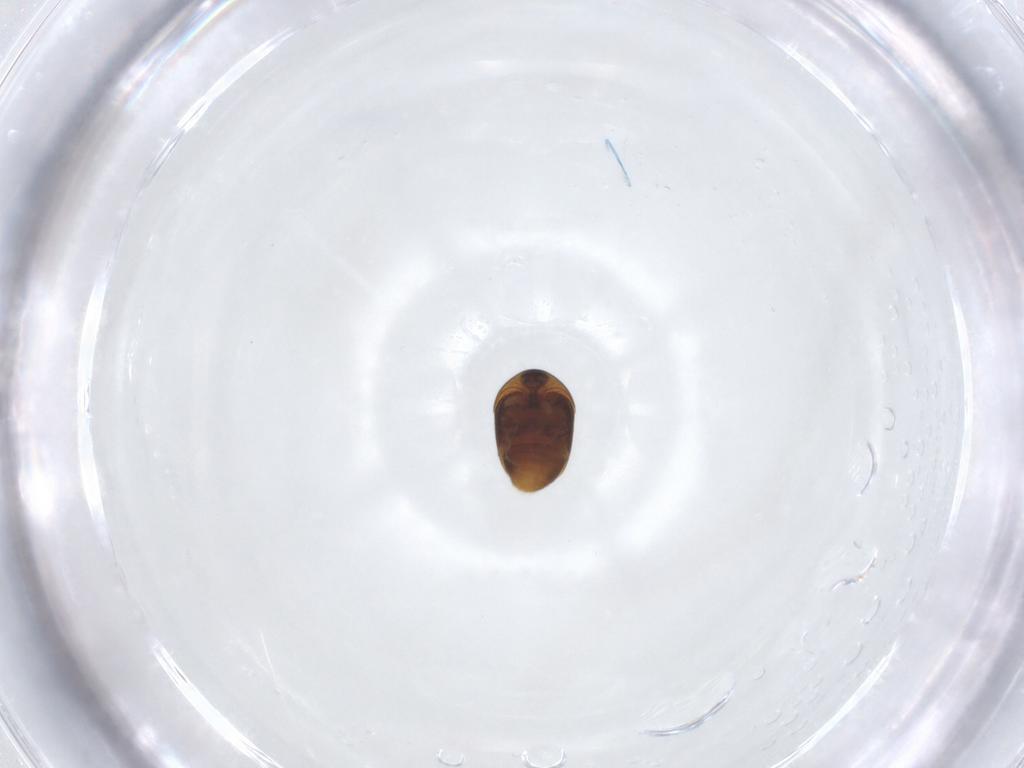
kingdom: Animalia
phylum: Arthropoda
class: Insecta
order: Coleoptera
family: Corylophidae
